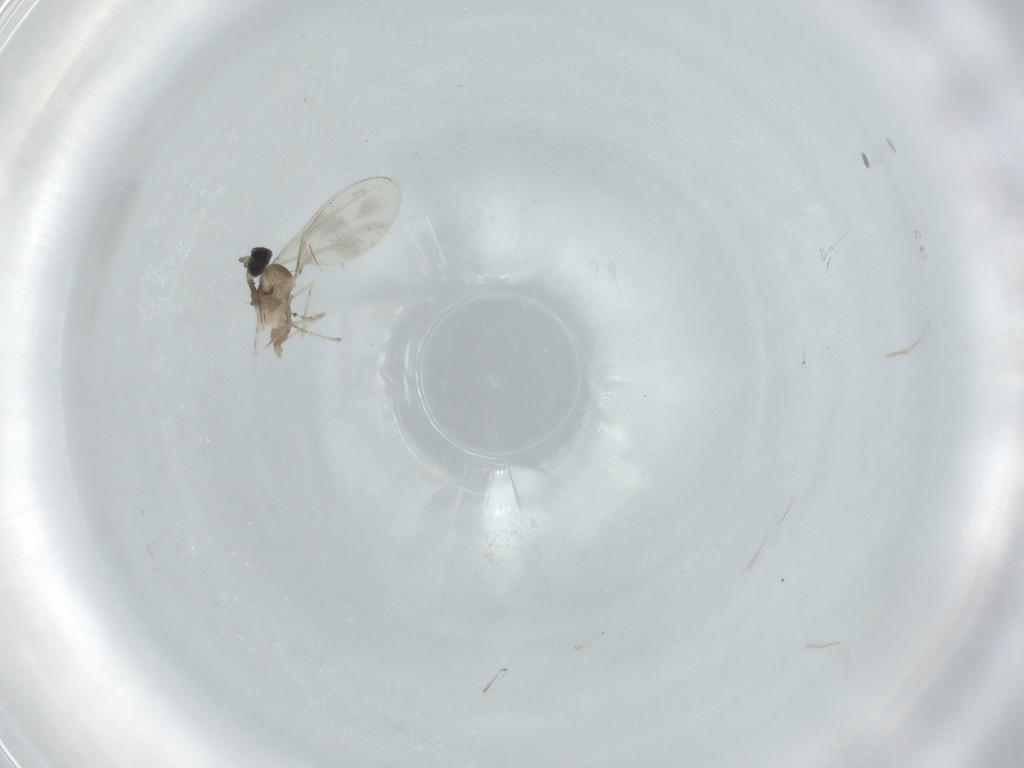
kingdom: Animalia
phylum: Arthropoda
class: Insecta
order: Diptera
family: Cecidomyiidae
